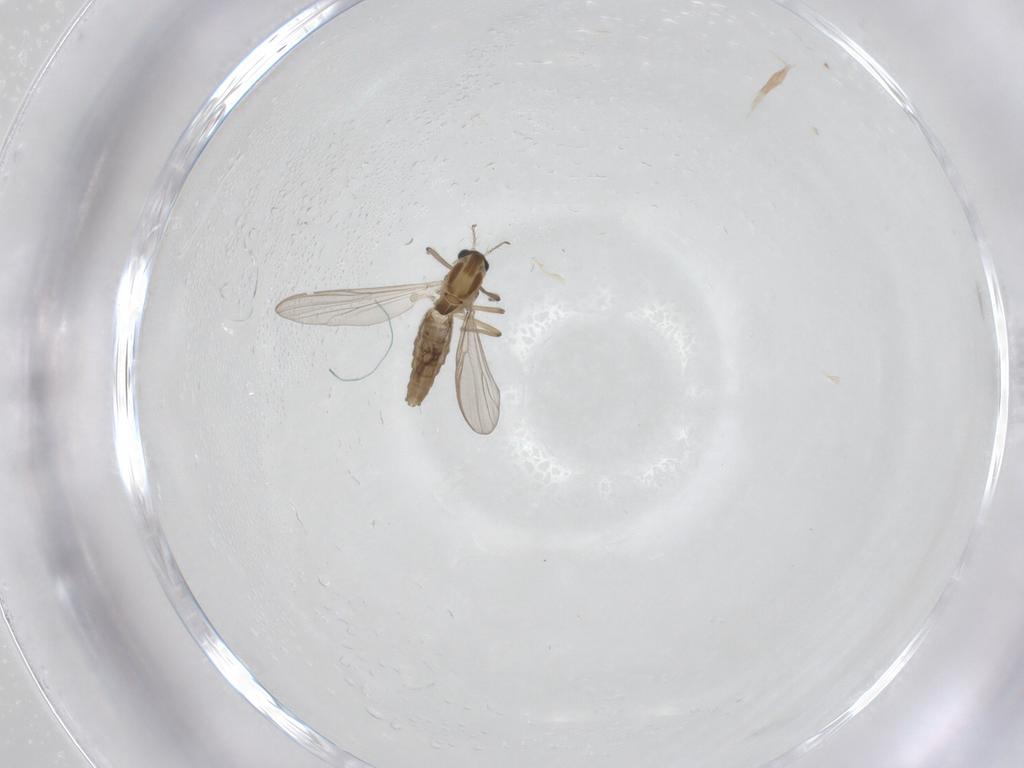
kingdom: Animalia
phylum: Arthropoda
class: Insecta
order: Diptera
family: Chironomidae
